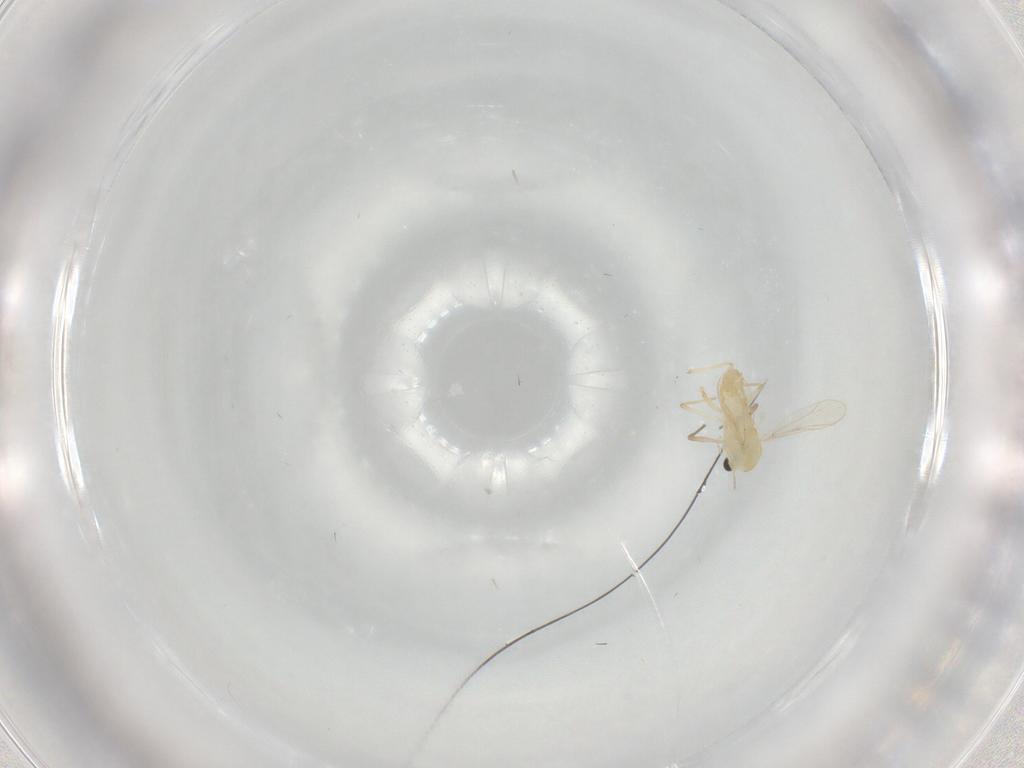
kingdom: Animalia
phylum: Arthropoda
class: Insecta
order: Diptera
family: Chironomidae
